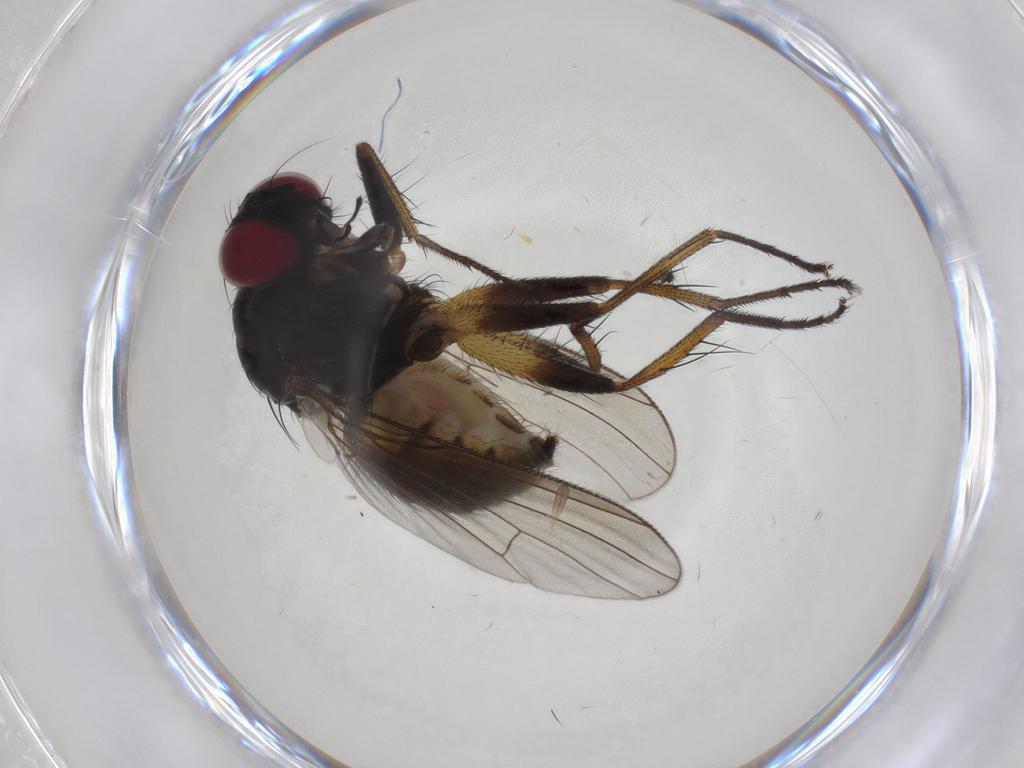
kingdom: Animalia
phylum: Arthropoda
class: Insecta
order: Diptera
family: Muscidae
